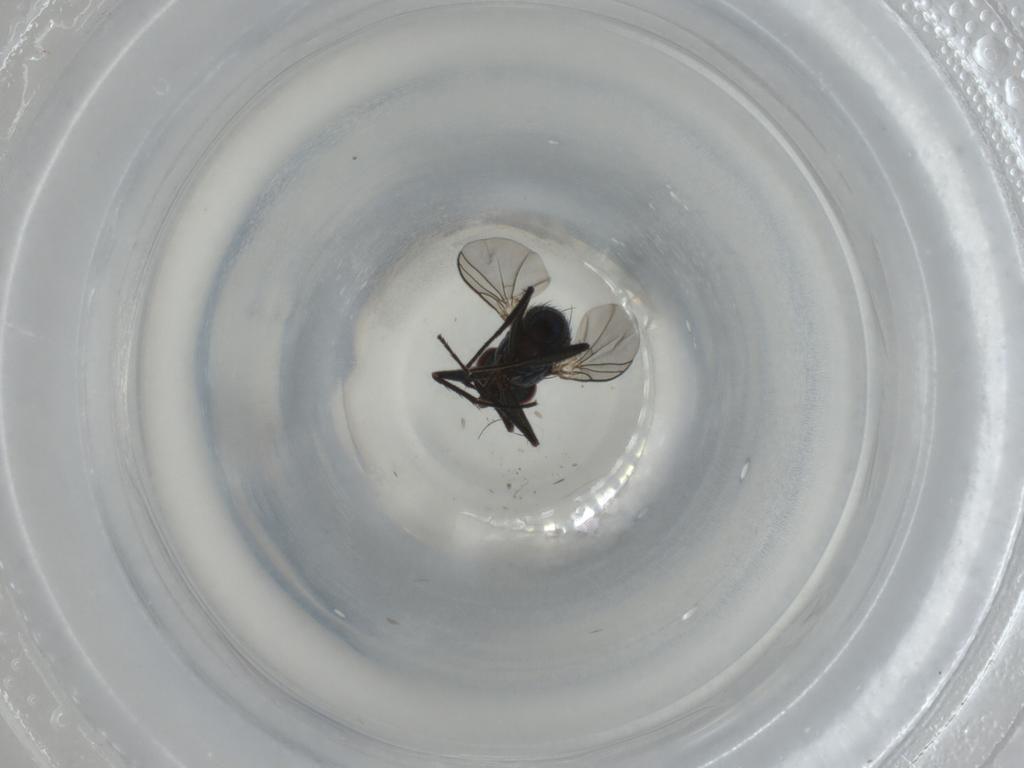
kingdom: Animalia
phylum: Arthropoda
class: Insecta
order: Diptera
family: Dolichopodidae
